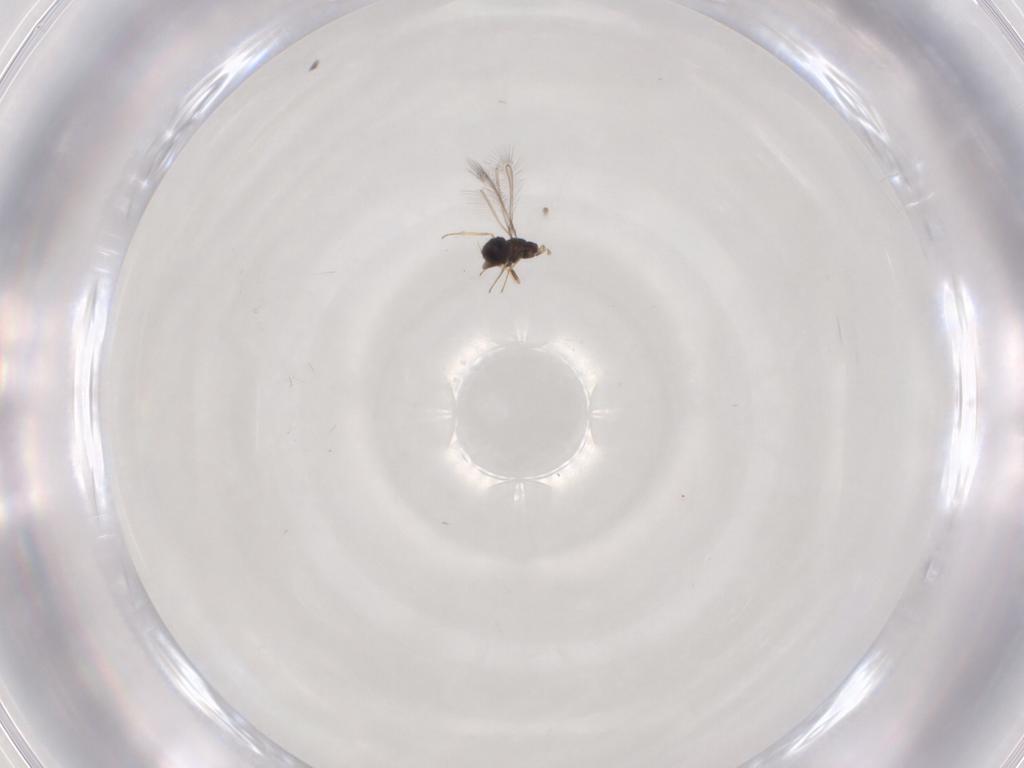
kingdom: Animalia
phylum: Arthropoda
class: Insecta
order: Hymenoptera
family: Mymaridae
